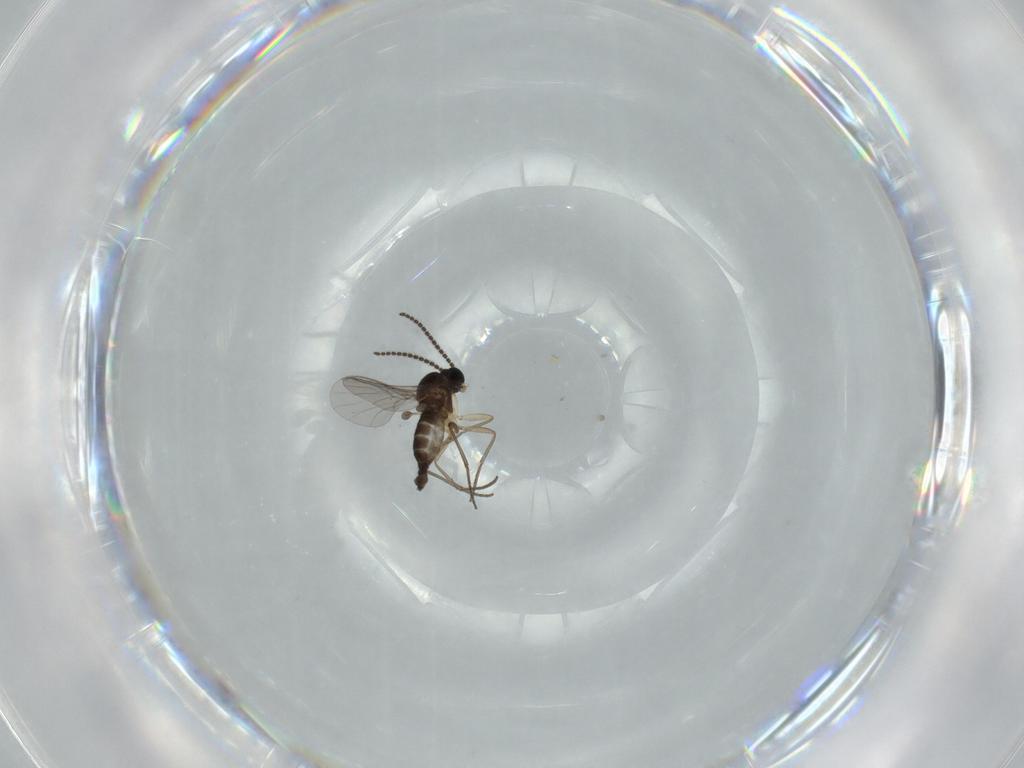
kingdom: Animalia
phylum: Arthropoda
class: Insecta
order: Diptera
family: Sciaridae
